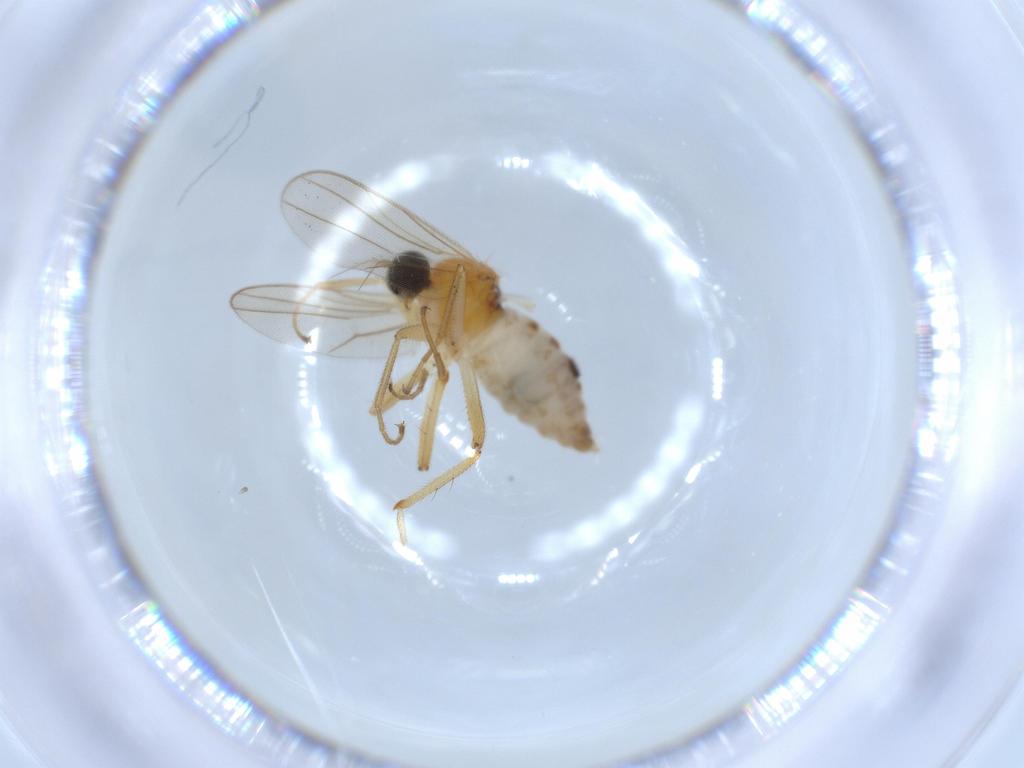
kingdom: Animalia
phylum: Arthropoda
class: Insecta
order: Diptera
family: Hybotidae
